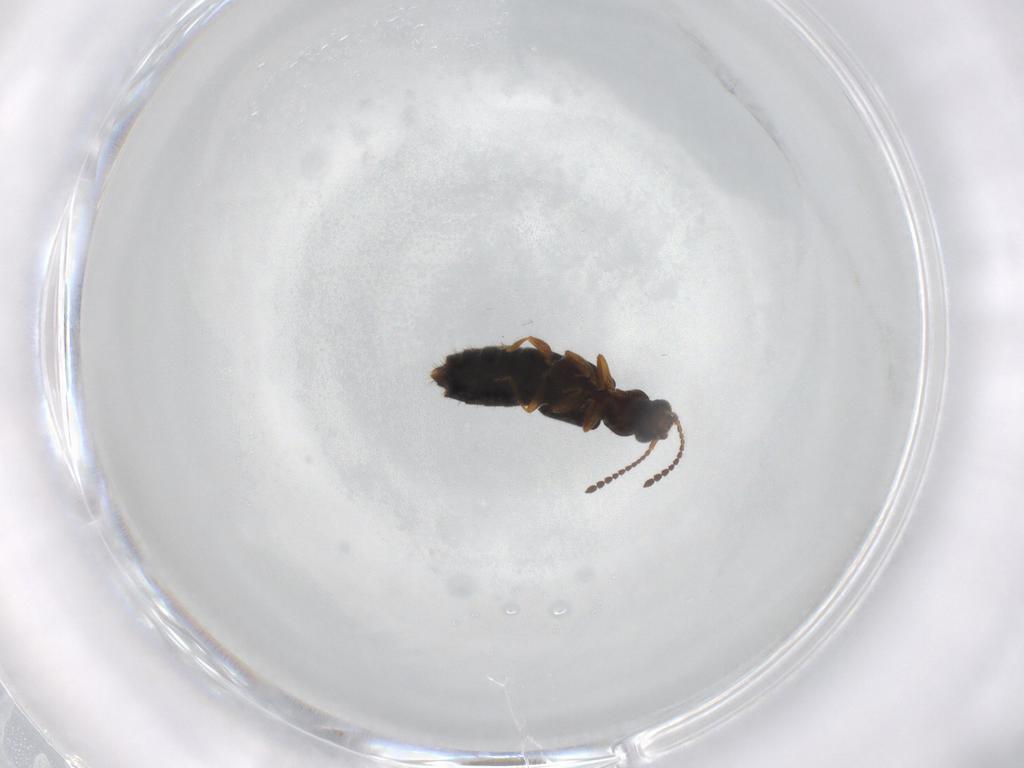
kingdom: Animalia
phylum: Arthropoda
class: Insecta
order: Coleoptera
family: Staphylinidae
